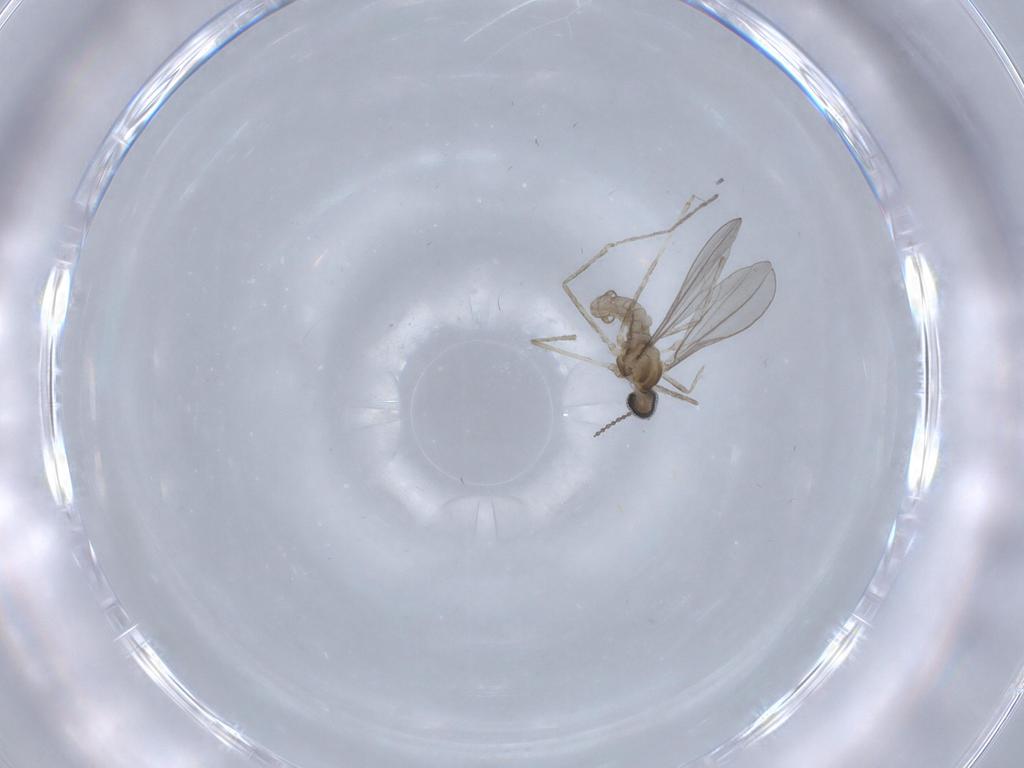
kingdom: Animalia
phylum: Arthropoda
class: Insecta
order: Diptera
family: Cecidomyiidae
